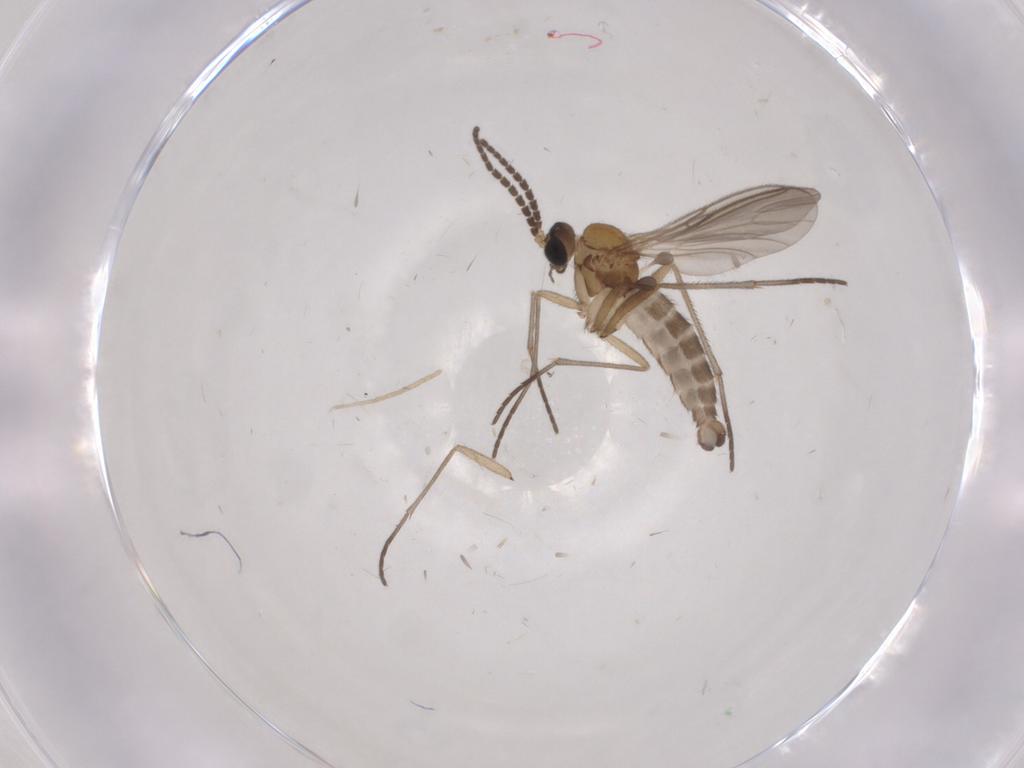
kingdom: Animalia
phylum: Arthropoda
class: Insecta
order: Diptera
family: Sciaridae
